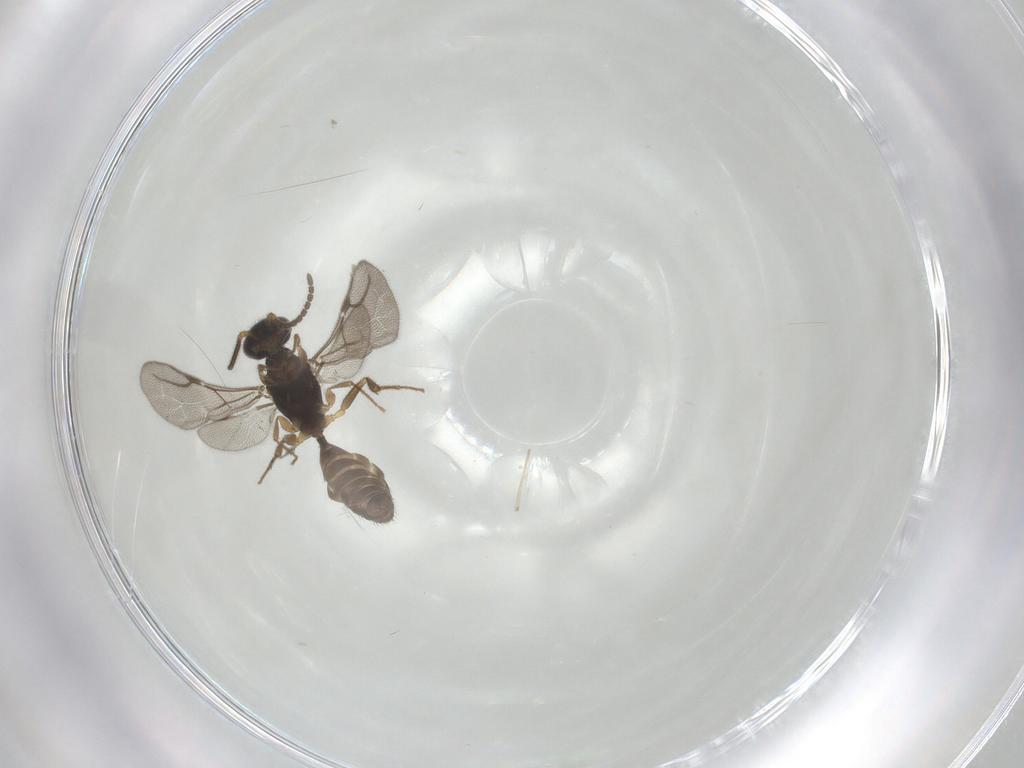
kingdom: Animalia
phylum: Arthropoda
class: Insecta
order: Hymenoptera
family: Bethylidae
